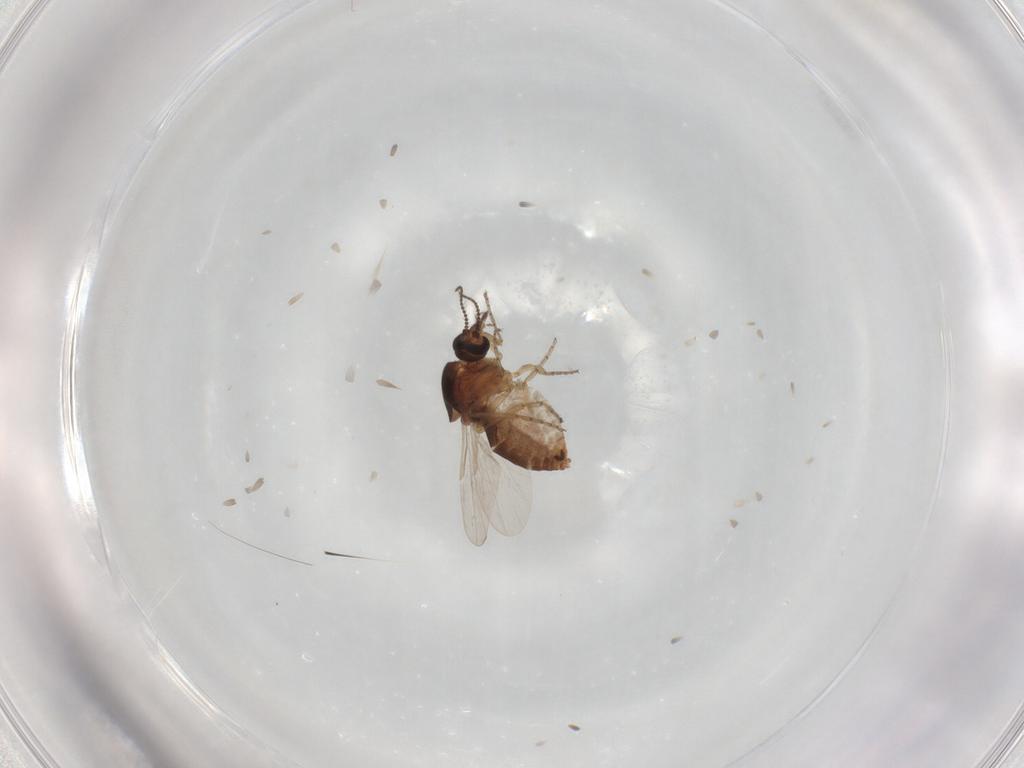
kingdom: Animalia
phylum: Arthropoda
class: Insecta
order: Diptera
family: Ceratopogonidae
